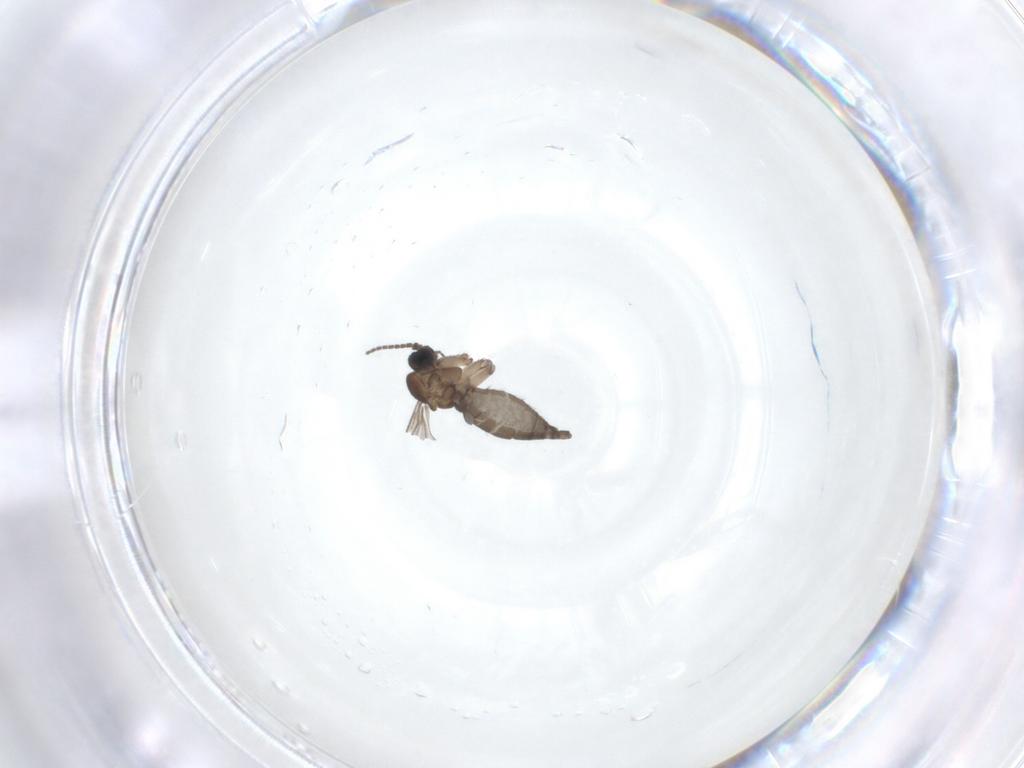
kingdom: Animalia
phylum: Arthropoda
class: Insecta
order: Diptera
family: Sciaridae
